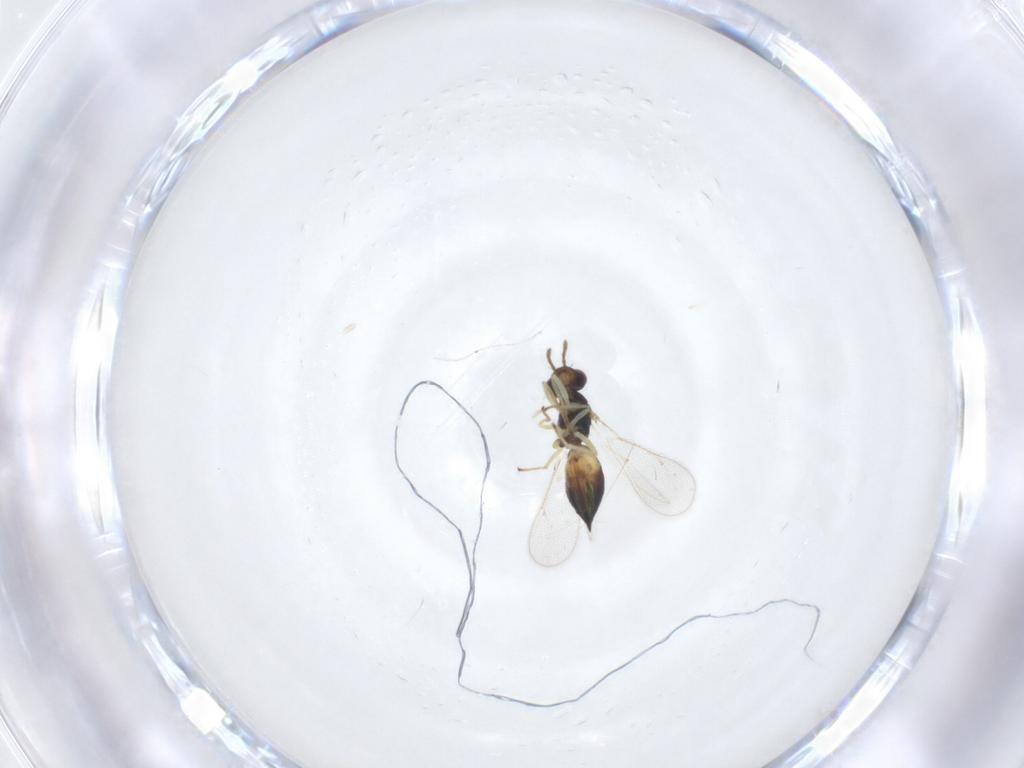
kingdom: Animalia
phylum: Arthropoda
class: Insecta
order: Hymenoptera
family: Eulophidae
